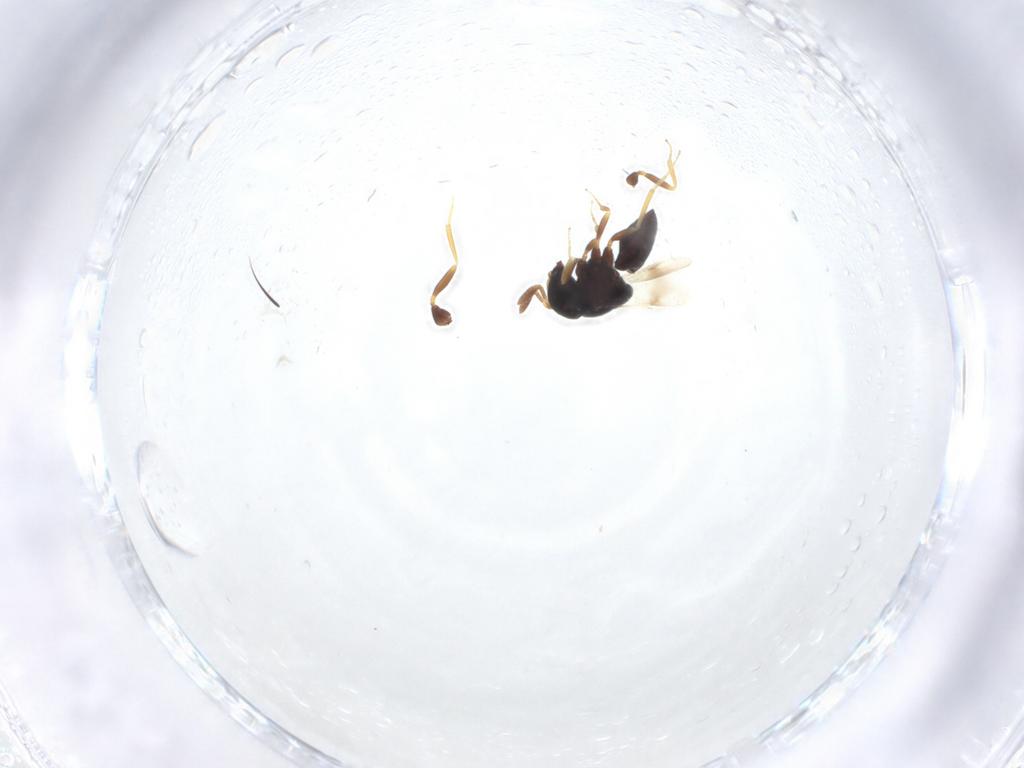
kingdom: Animalia
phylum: Arthropoda
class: Insecta
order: Hymenoptera
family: Scelionidae
